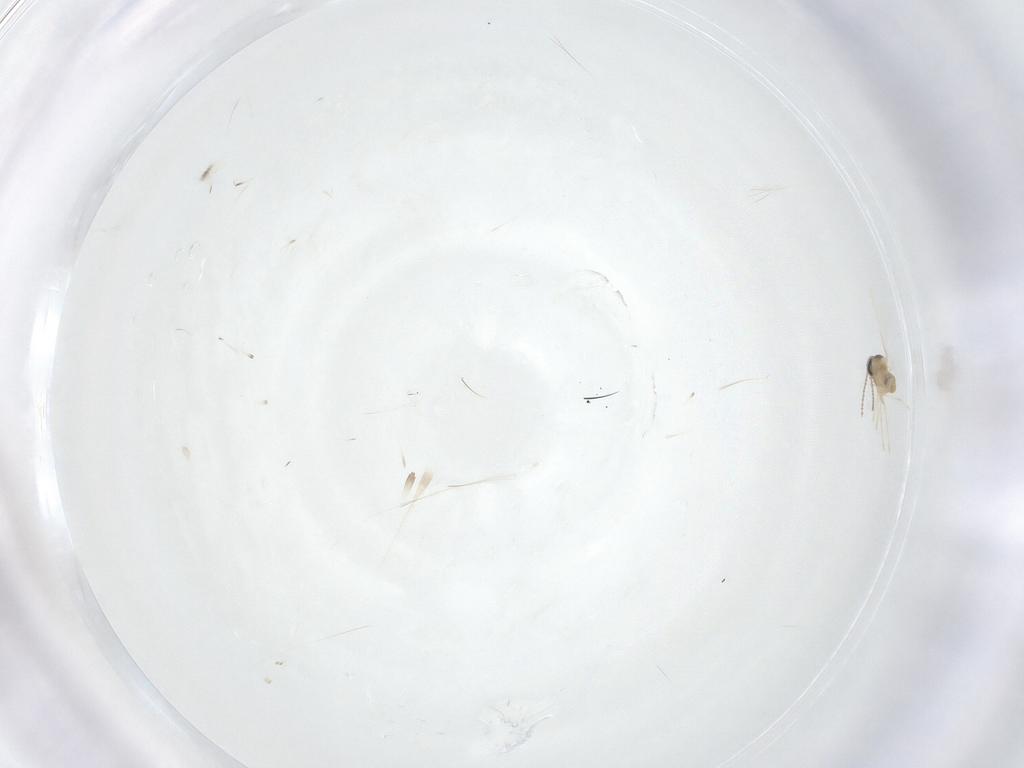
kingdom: Animalia
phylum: Arthropoda
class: Insecta
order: Diptera
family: Cecidomyiidae
